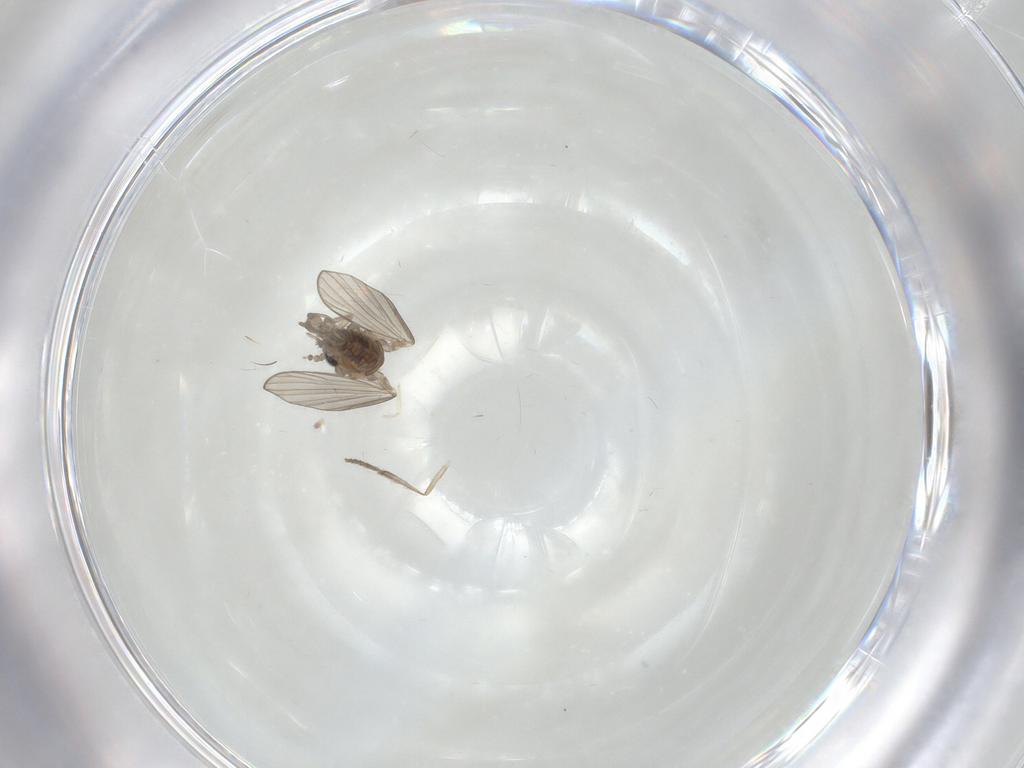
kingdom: Animalia
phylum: Arthropoda
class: Insecta
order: Diptera
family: Psychodidae
